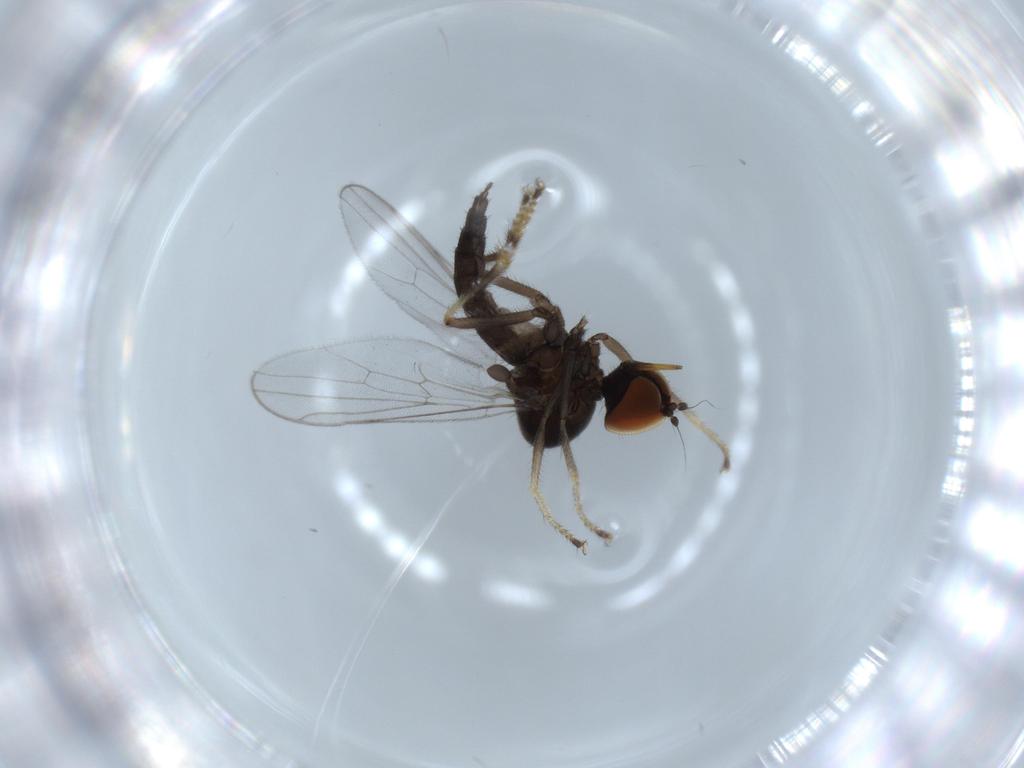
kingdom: Animalia
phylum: Arthropoda
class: Insecta
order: Diptera
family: Hybotidae
